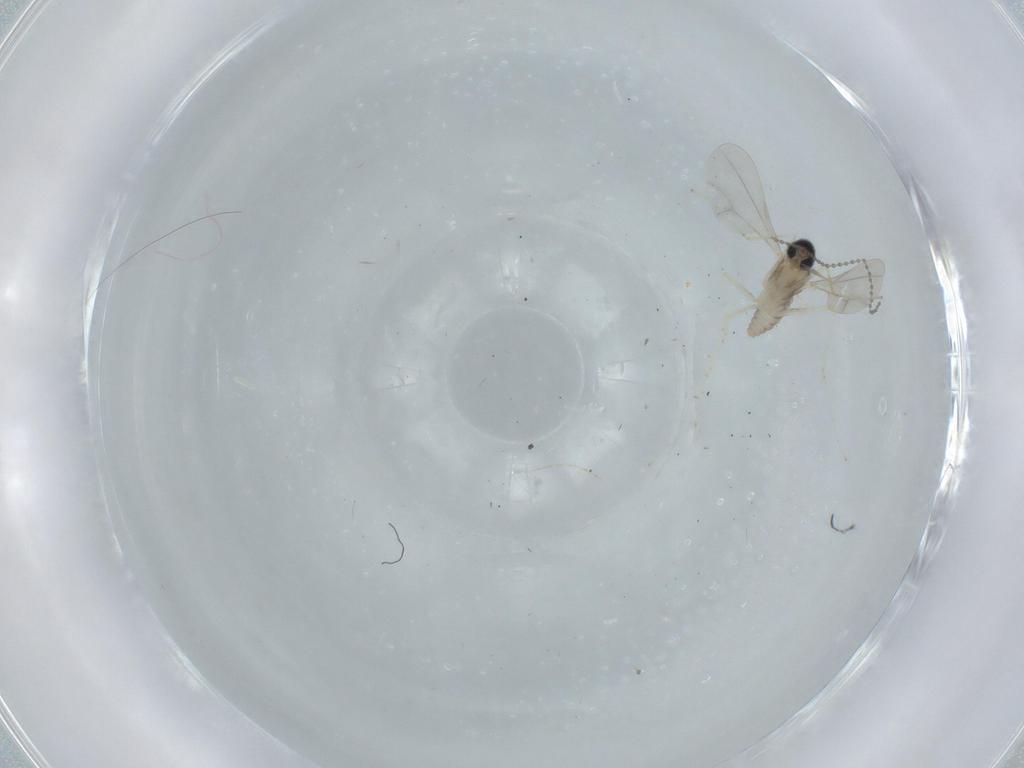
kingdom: Animalia
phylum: Arthropoda
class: Insecta
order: Diptera
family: Cecidomyiidae
